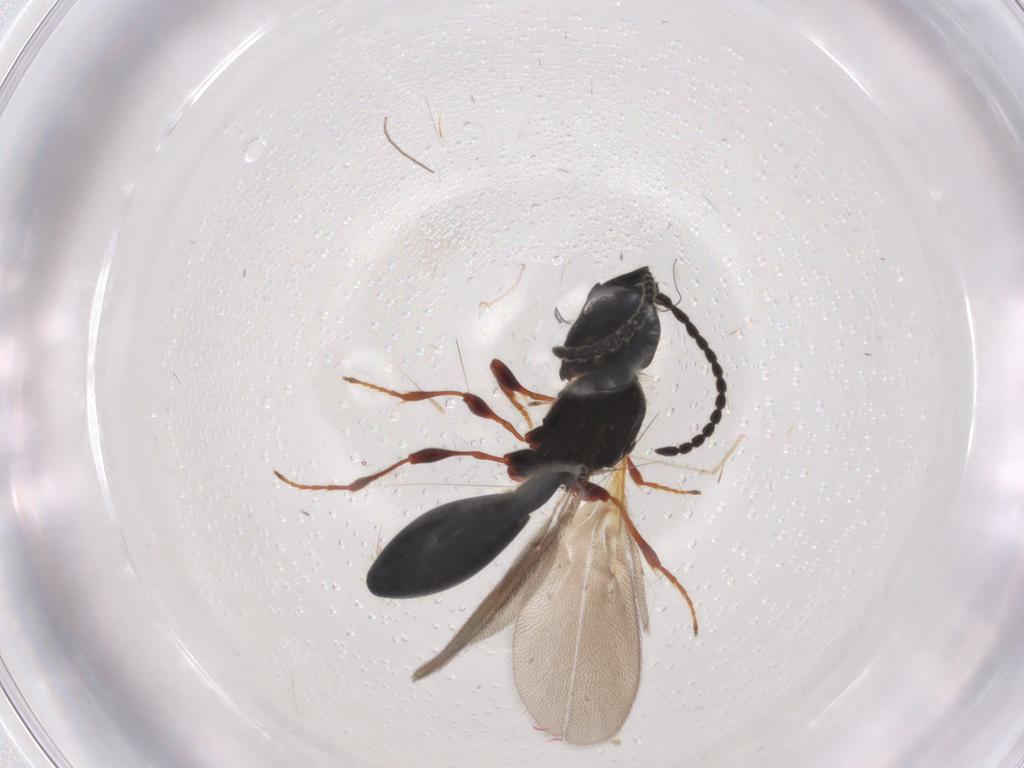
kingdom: Animalia
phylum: Arthropoda
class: Insecta
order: Hymenoptera
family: Diapriidae
